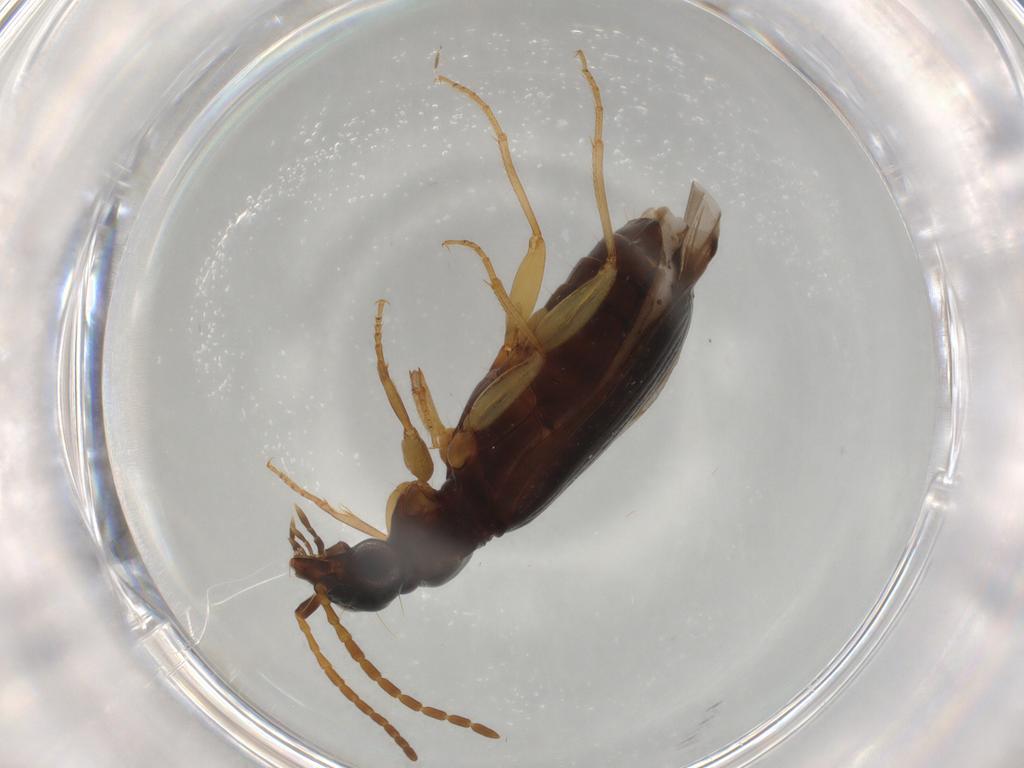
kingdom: Animalia
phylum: Arthropoda
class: Insecta
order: Coleoptera
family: Carabidae
